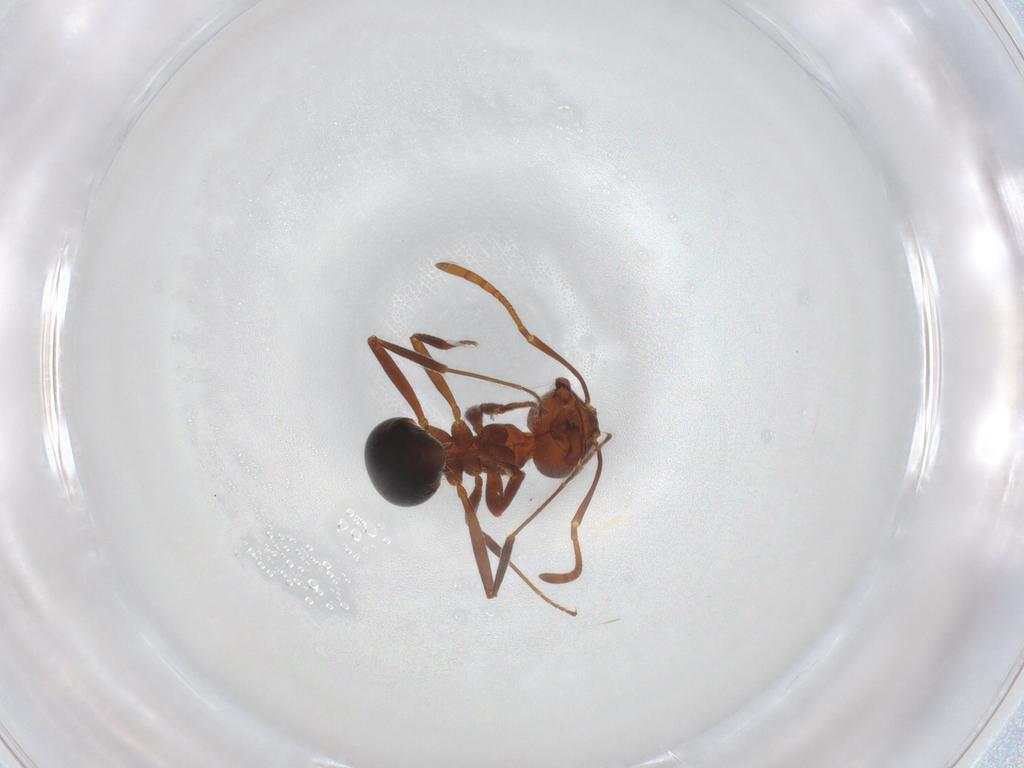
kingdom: Animalia
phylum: Arthropoda
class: Insecta
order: Hymenoptera
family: Formicidae
